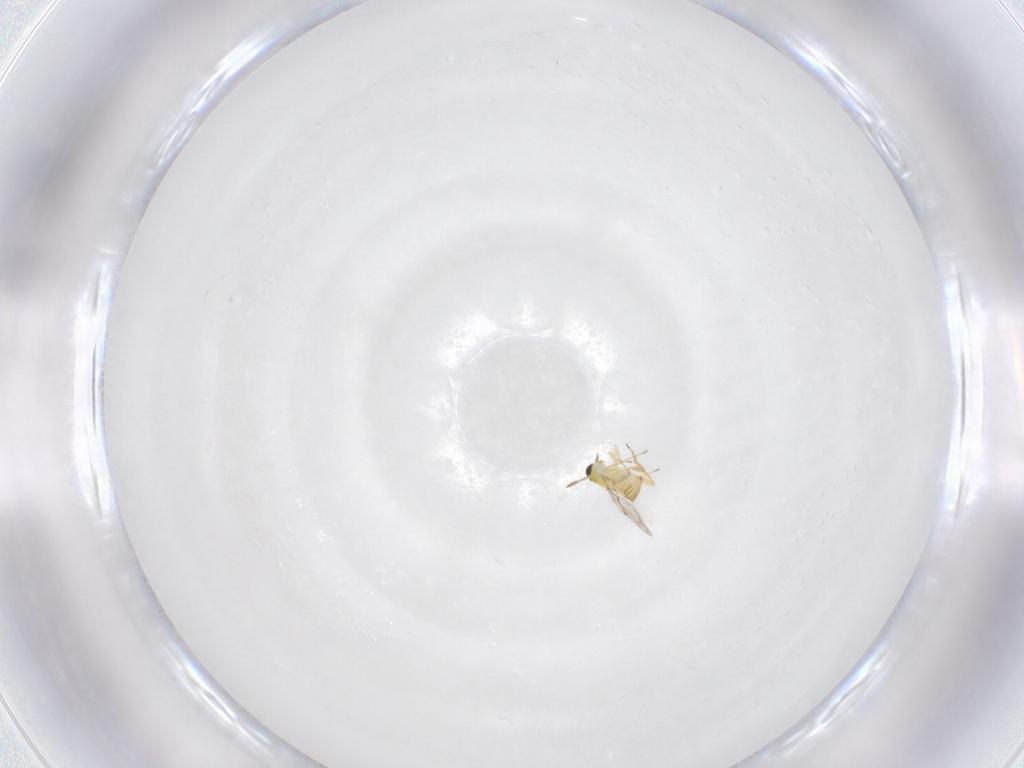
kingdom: Animalia
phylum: Arthropoda
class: Insecta
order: Hymenoptera
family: Trichogrammatidae
